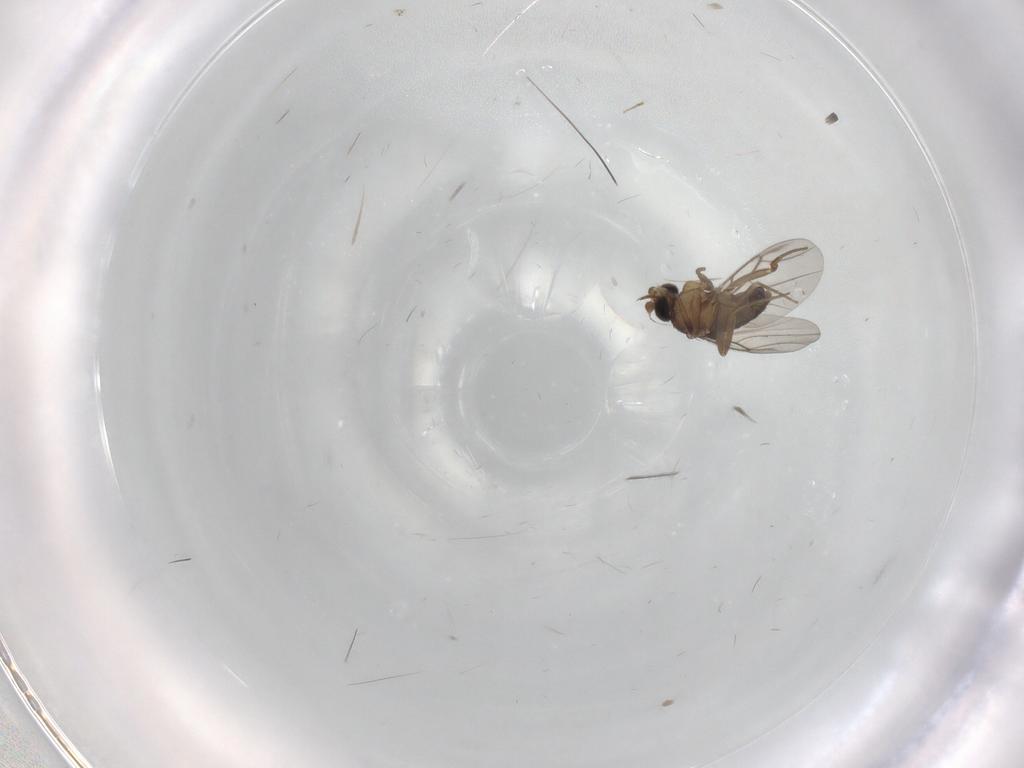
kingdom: Animalia
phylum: Arthropoda
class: Insecta
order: Diptera
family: Phoridae
